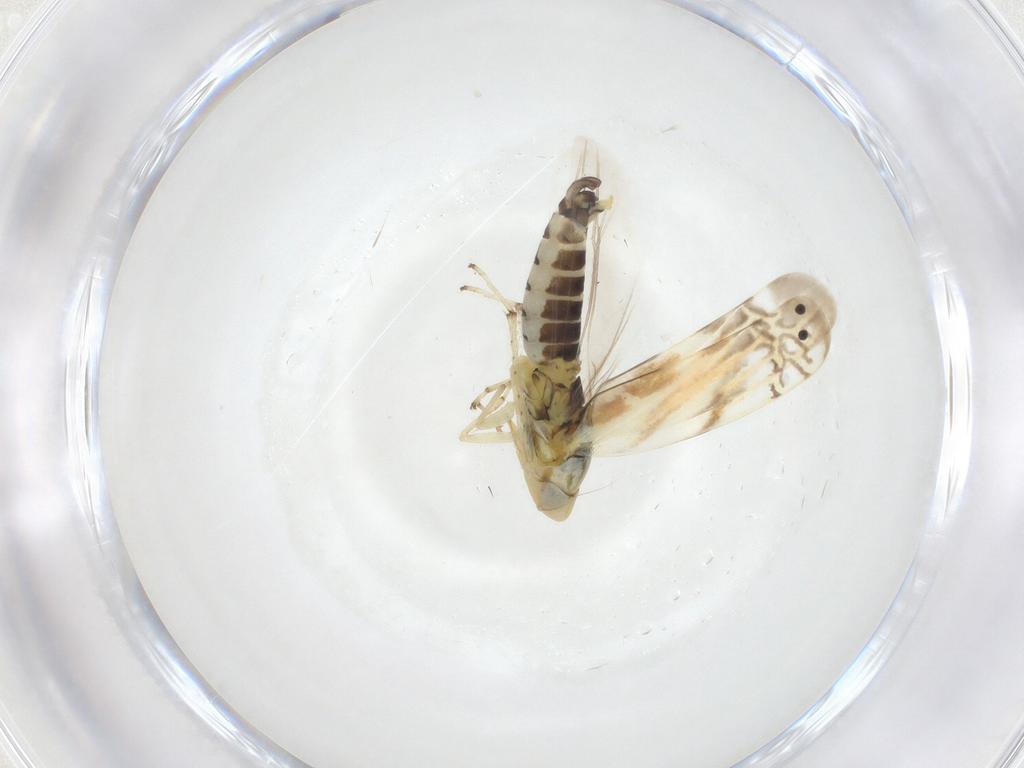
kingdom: Animalia
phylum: Arthropoda
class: Insecta
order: Hemiptera
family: Cicadellidae
